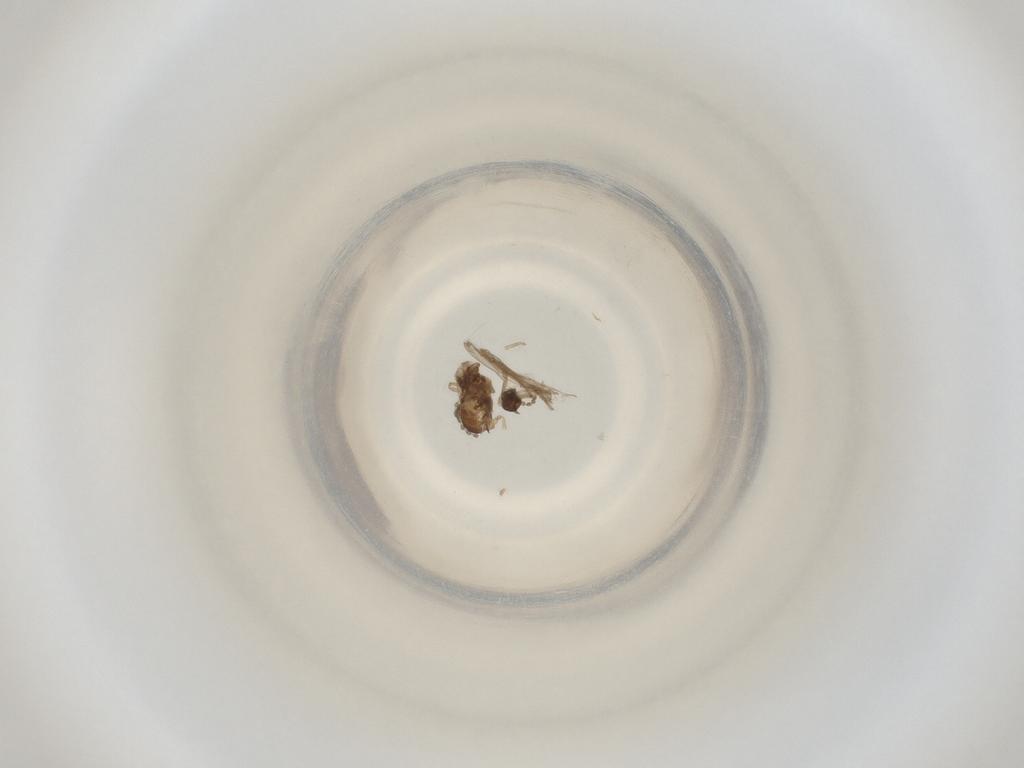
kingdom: Animalia
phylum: Arthropoda
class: Insecta
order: Diptera
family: Cecidomyiidae
